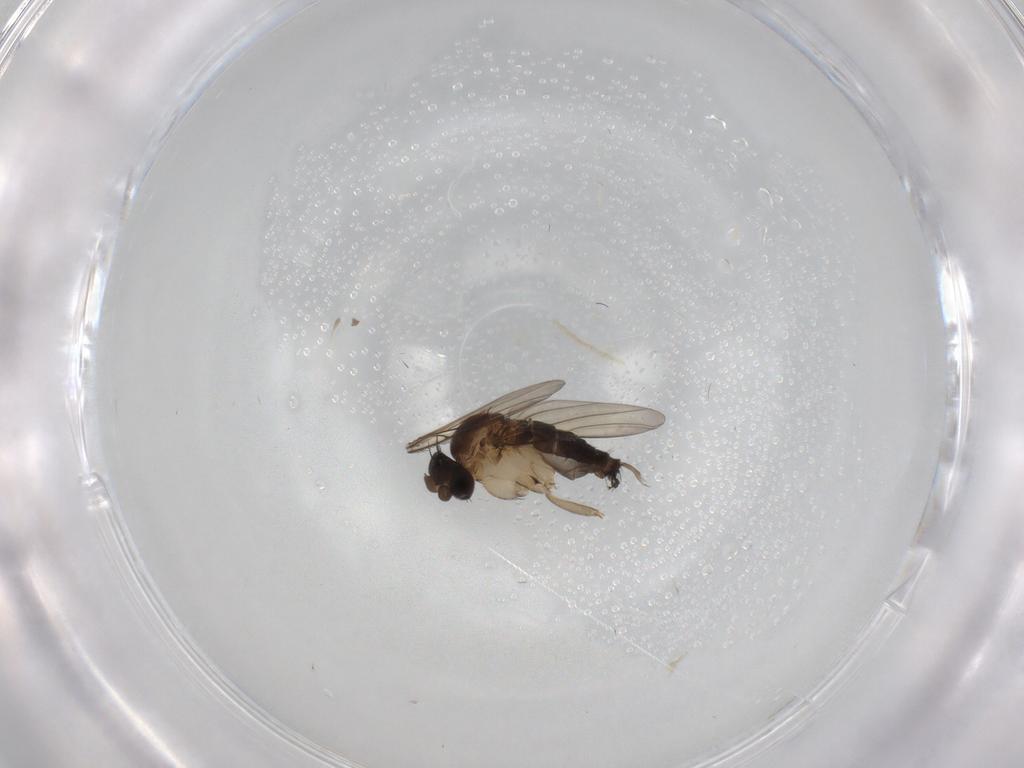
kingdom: Animalia
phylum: Arthropoda
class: Insecta
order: Diptera
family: Phoridae
